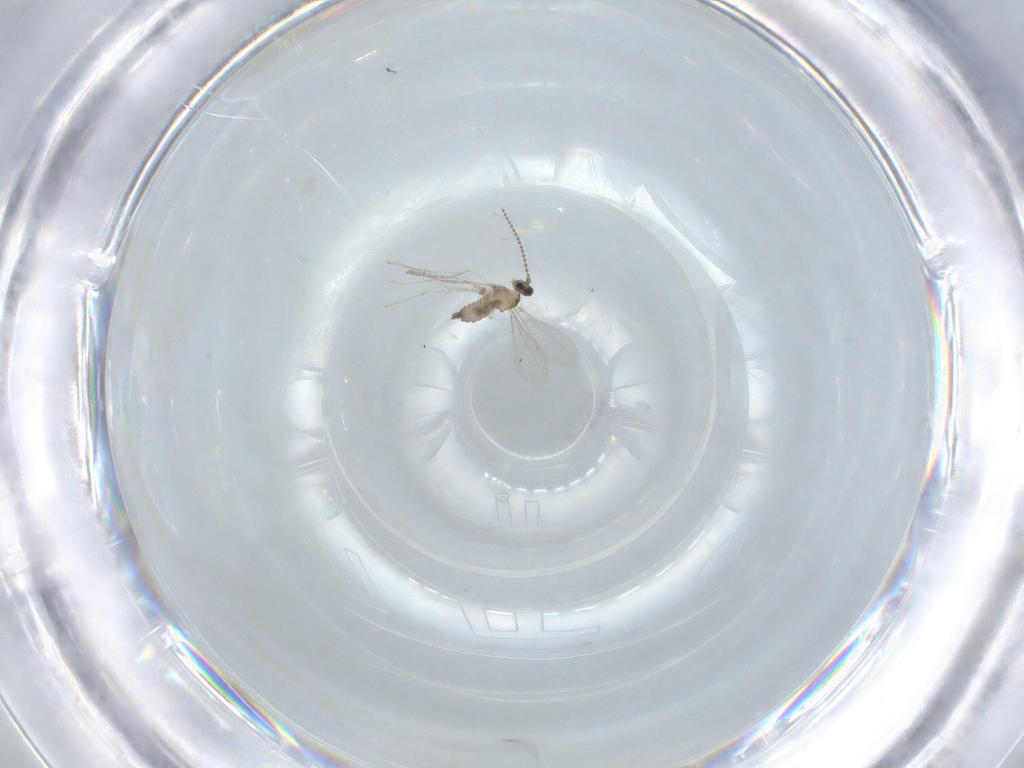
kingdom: Animalia
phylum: Arthropoda
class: Insecta
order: Diptera
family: Cecidomyiidae
